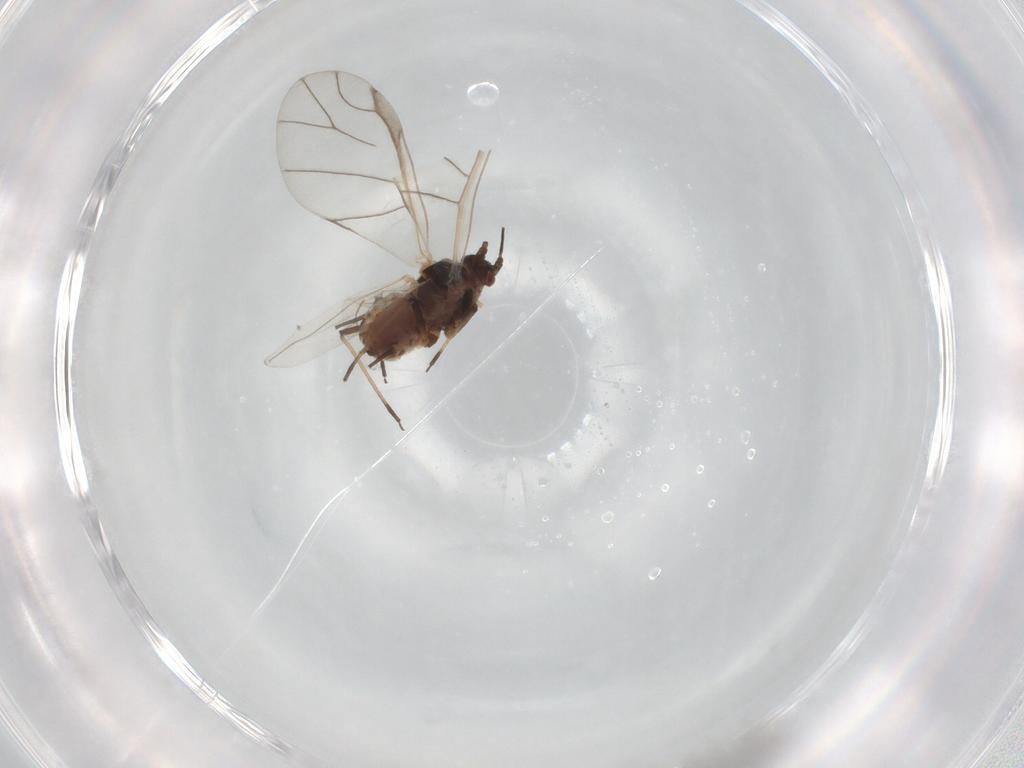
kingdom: Animalia
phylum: Arthropoda
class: Insecta
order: Hemiptera
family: Aphididae
